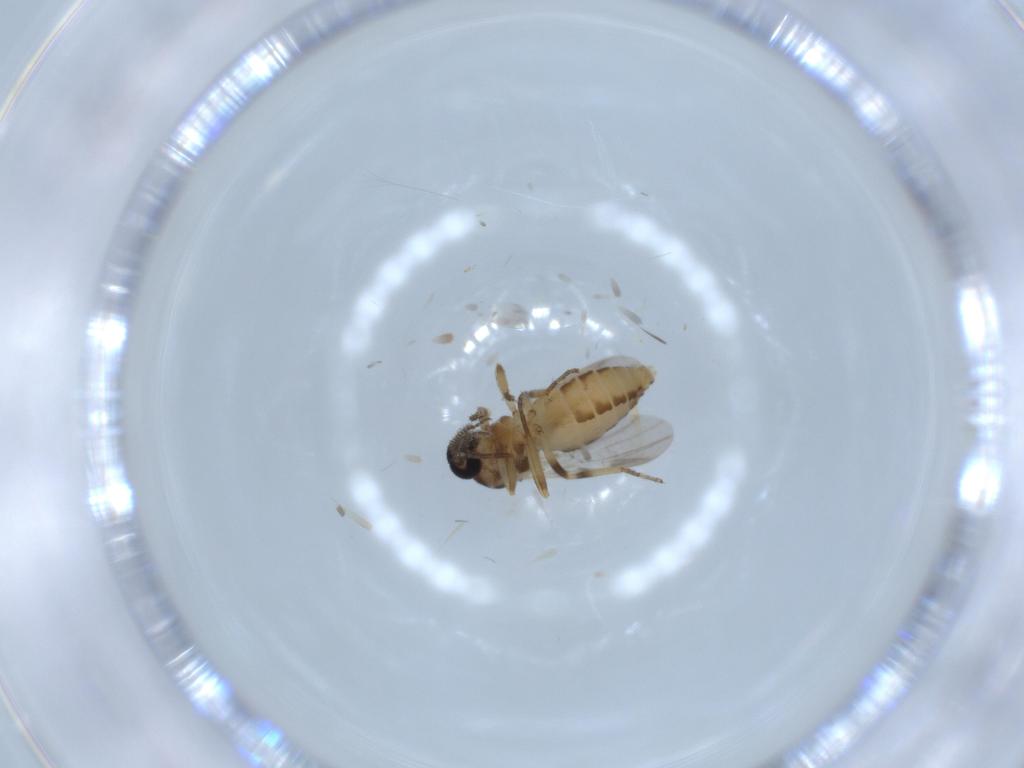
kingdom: Animalia
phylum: Arthropoda
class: Insecta
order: Diptera
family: Ceratopogonidae
